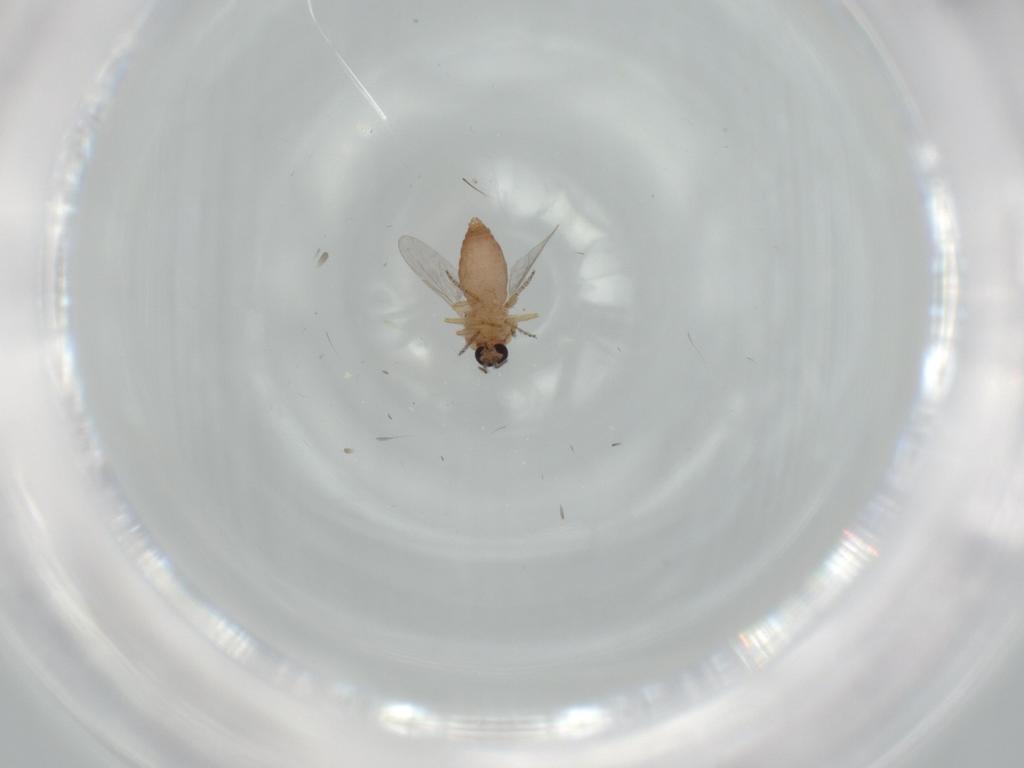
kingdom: Animalia
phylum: Arthropoda
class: Insecta
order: Diptera
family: Ceratopogonidae
